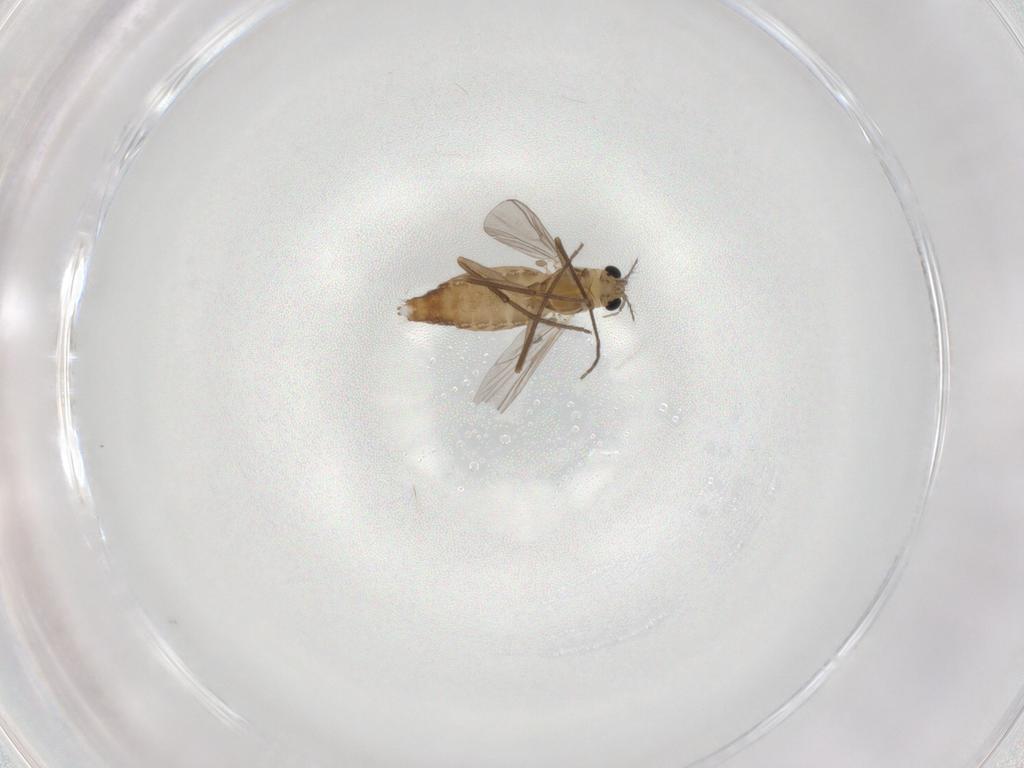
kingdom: Animalia
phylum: Arthropoda
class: Insecta
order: Diptera
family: Chironomidae
